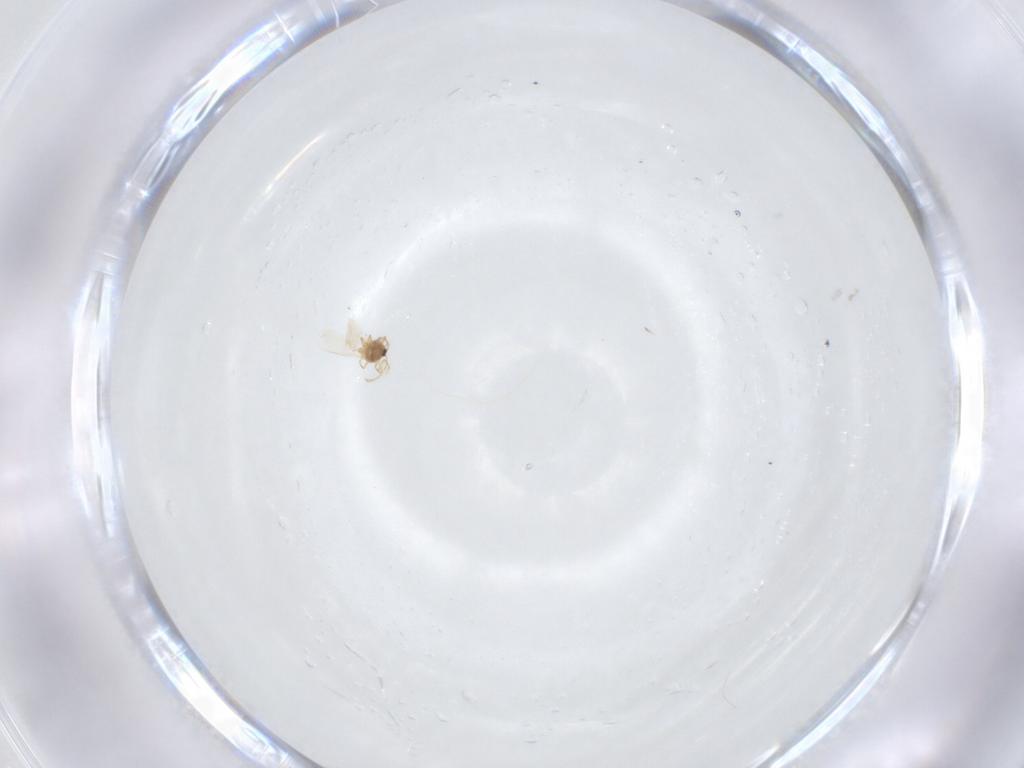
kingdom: Animalia
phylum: Arthropoda
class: Insecta
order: Hemiptera
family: Diaspididae
